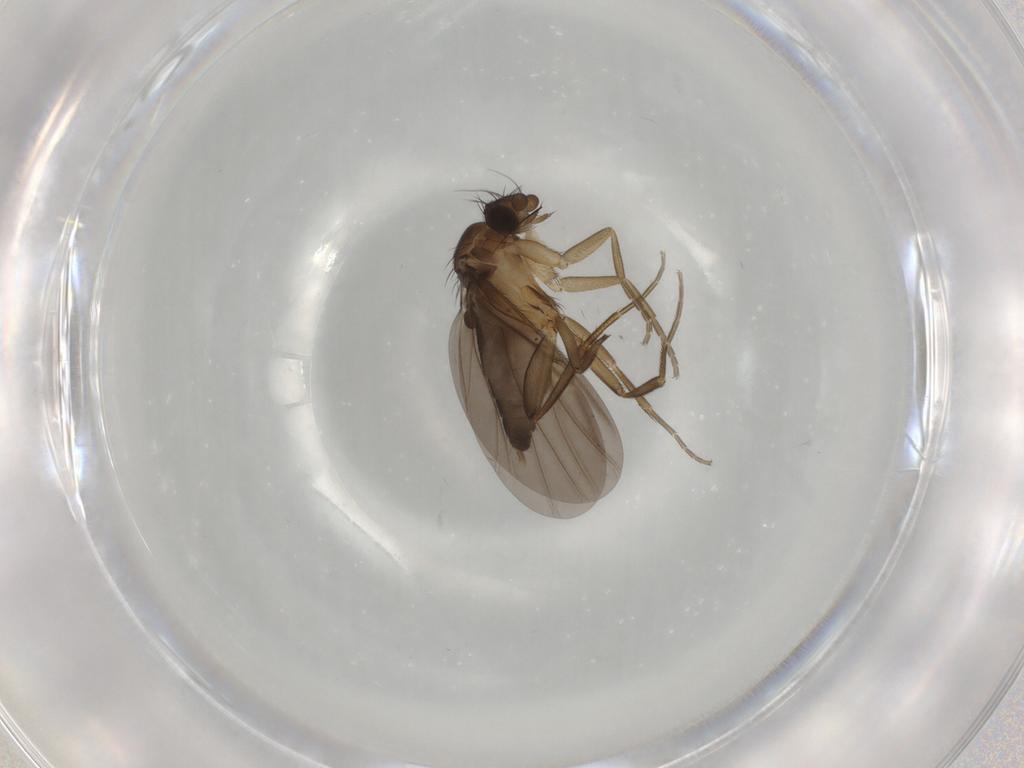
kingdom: Animalia
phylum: Arthropoda
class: Insecta
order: Diptera
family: Phoridae
